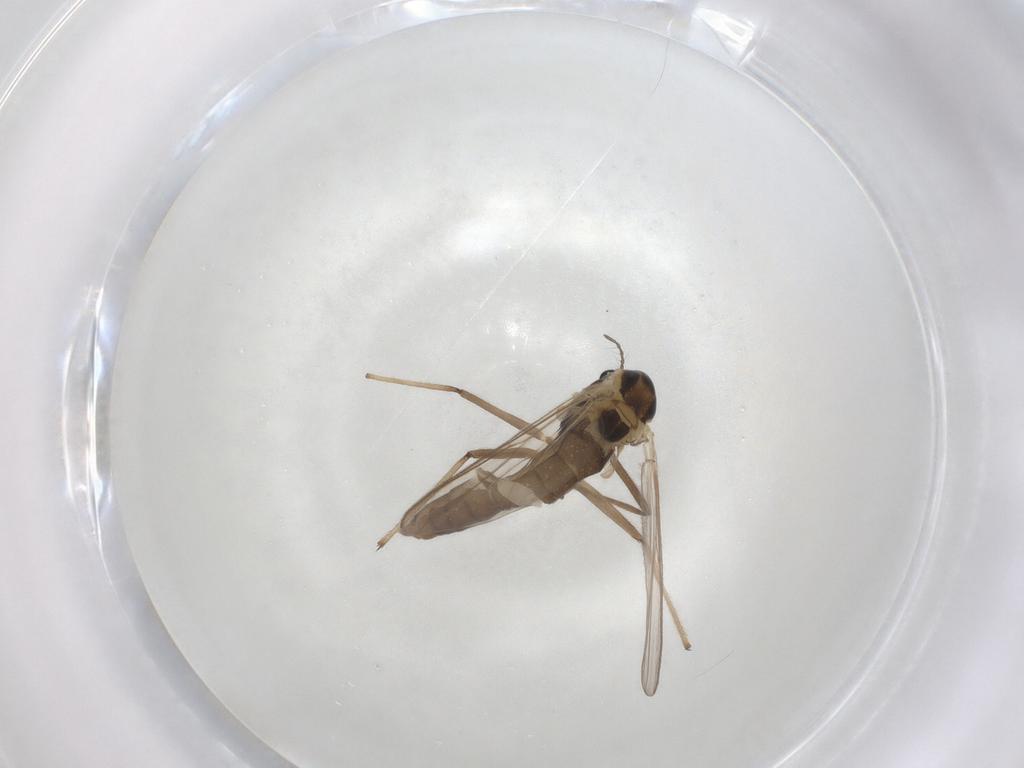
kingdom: Animalia
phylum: Arthropoda
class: Insecta
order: Diptera
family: Chironomidae
